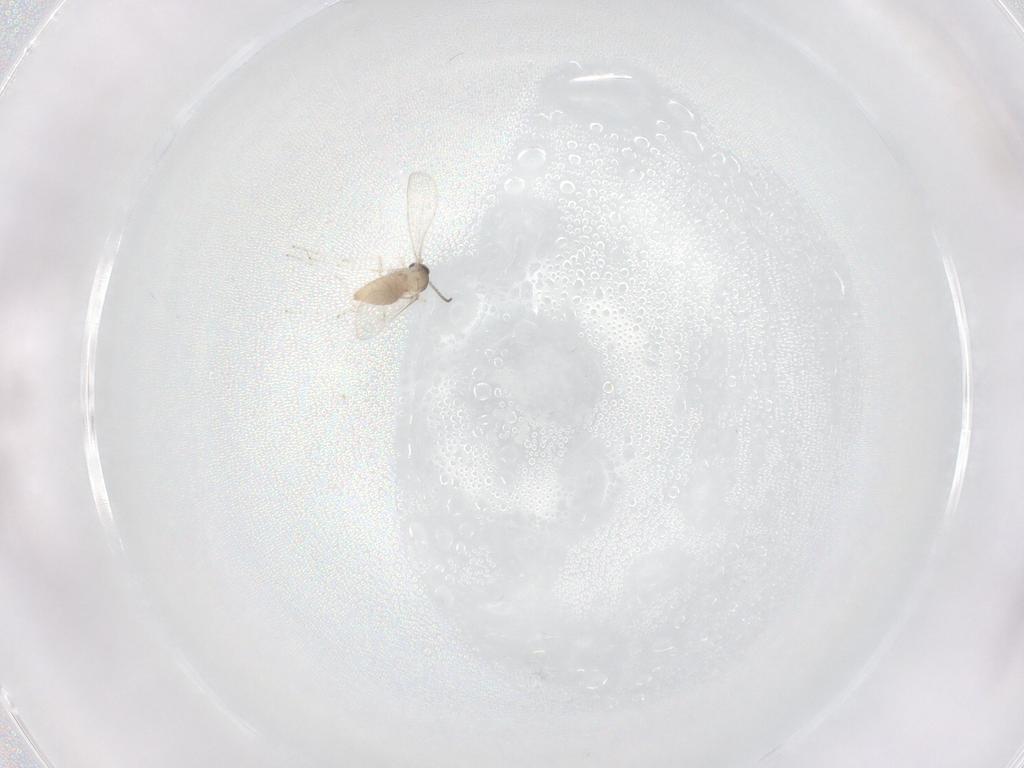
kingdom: Animalia
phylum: Arthropoda
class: Insecta
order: Diptera
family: Cecidomyiidae
